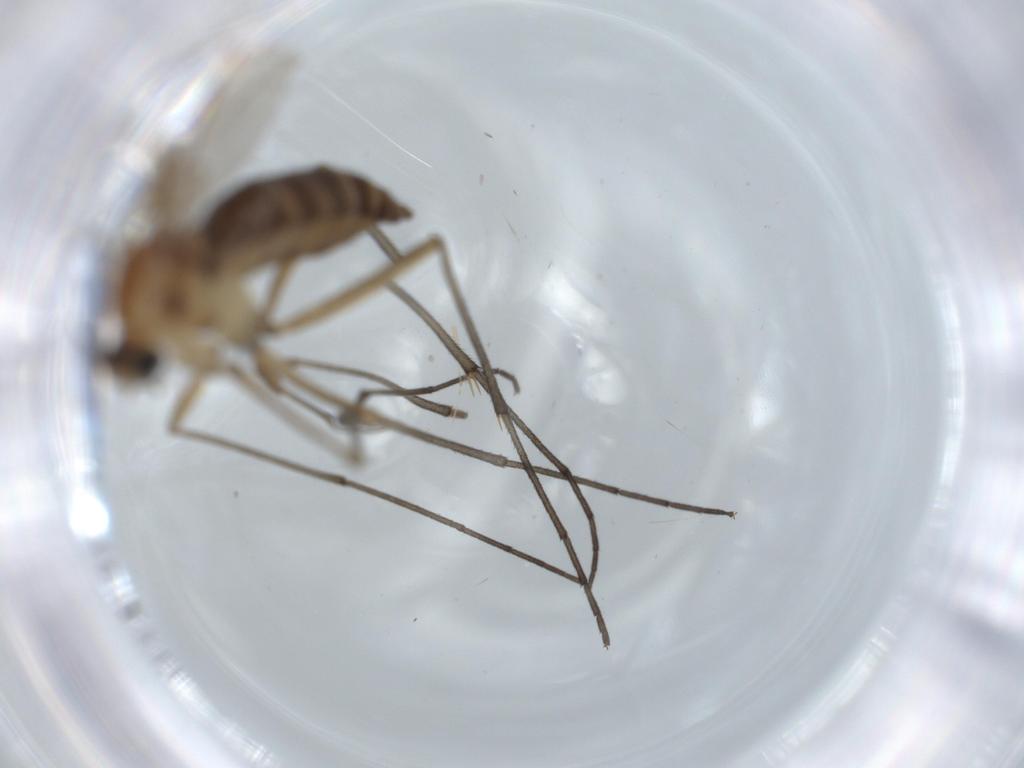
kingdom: Animalia
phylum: Arthropoda
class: Insecta
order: Diptera
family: Sciaridae
